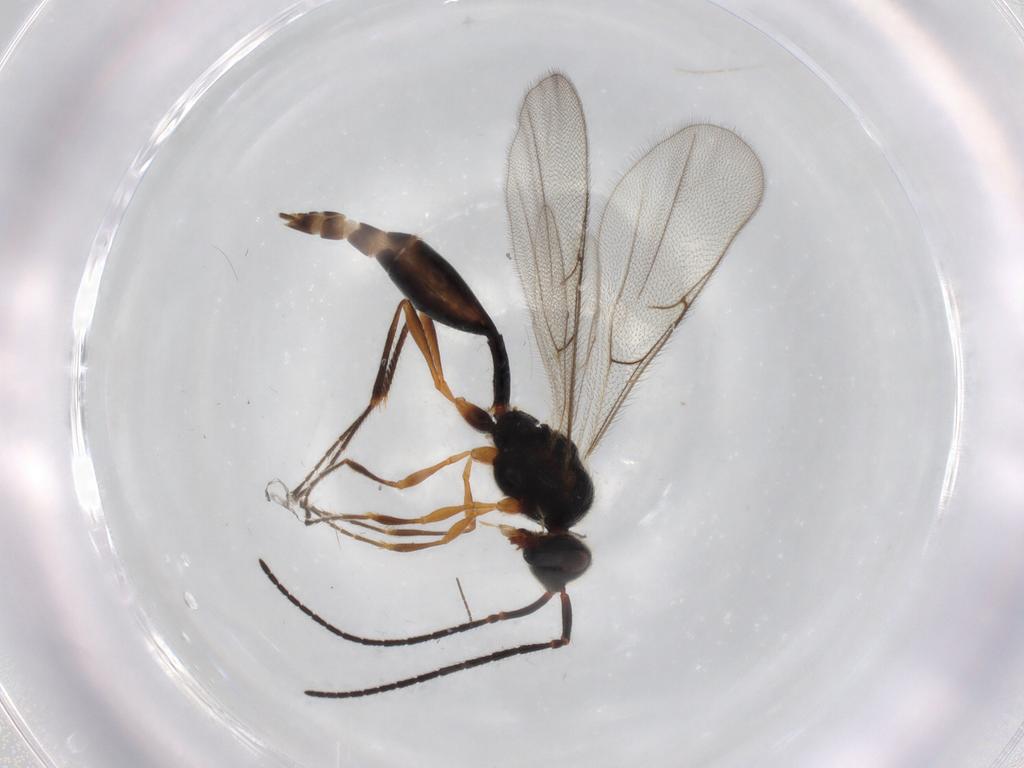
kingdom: Animalia
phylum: Arthropoda
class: Insecta
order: Hymenoptera
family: Diapriidae
